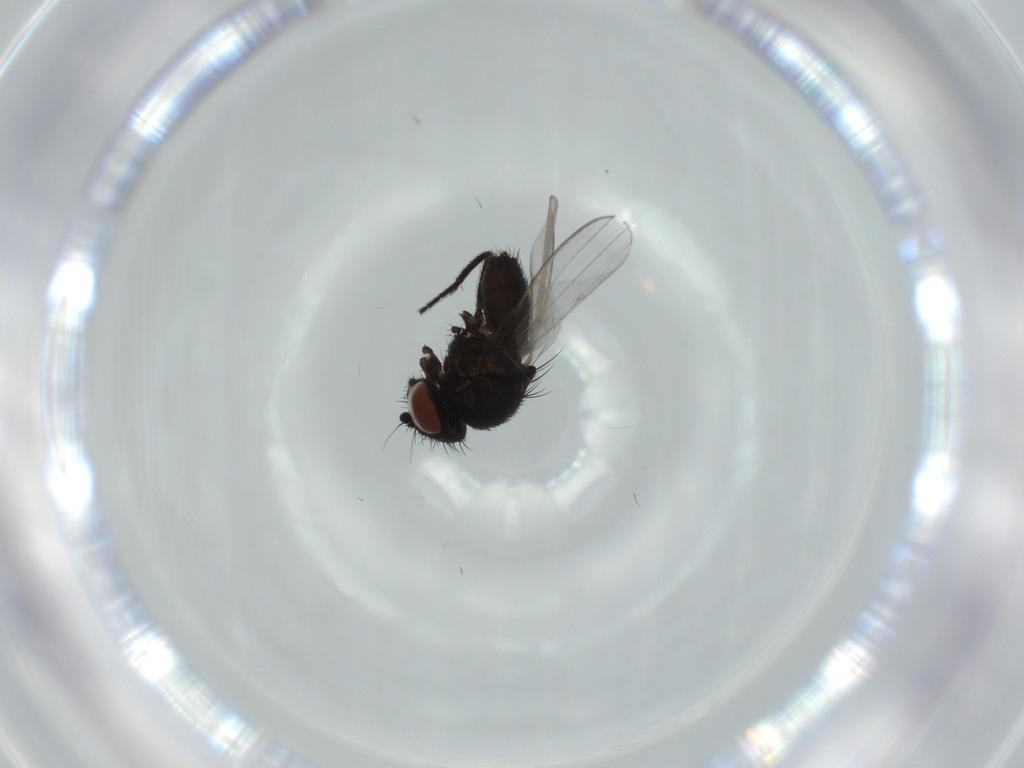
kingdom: Animalia
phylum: Arthropoda
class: Insecta
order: Diptera
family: Milichiidae
